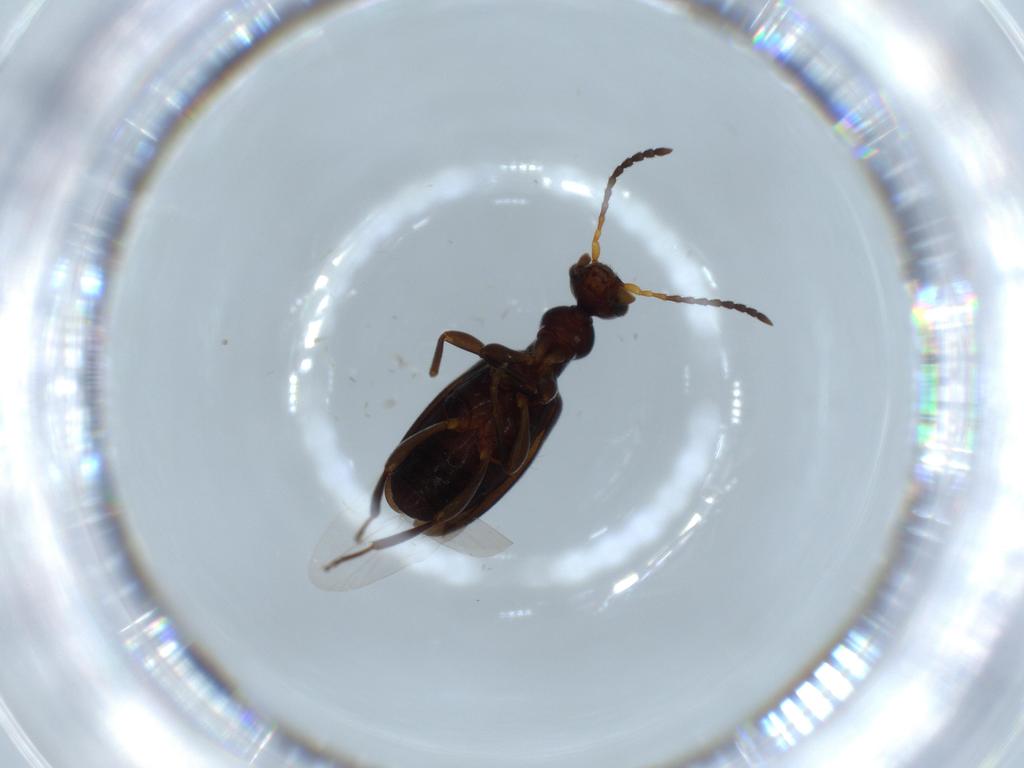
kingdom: Animalia
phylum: Arthropoda
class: Insecta
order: Coleoptera
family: Anthicidae
